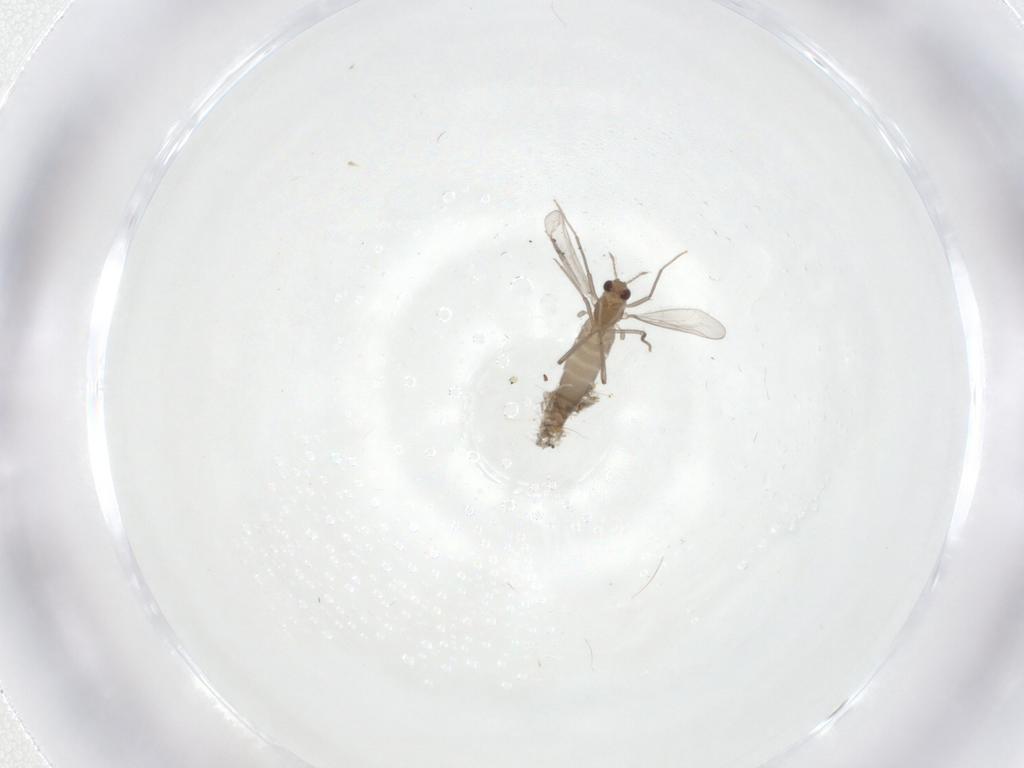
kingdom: Animalia
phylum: Arthropoda
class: Insecta
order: Diptera
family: Chironomidae
